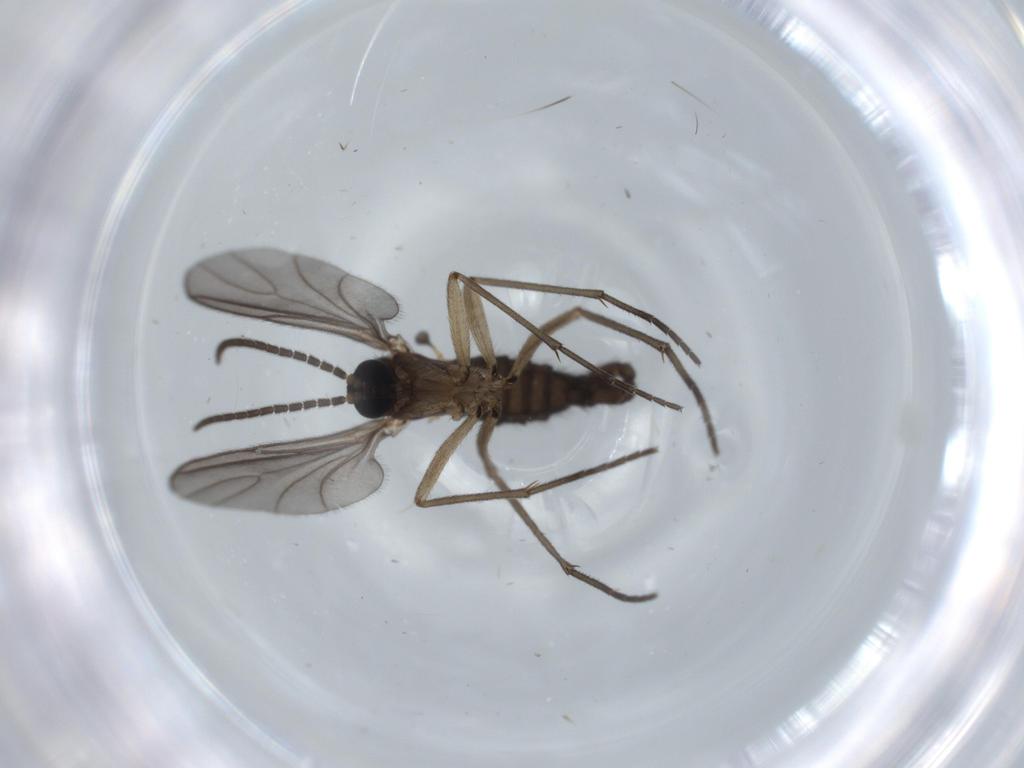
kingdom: Animalia
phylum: Arthropoda
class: Insecta
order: Diptera
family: Sciaridae
